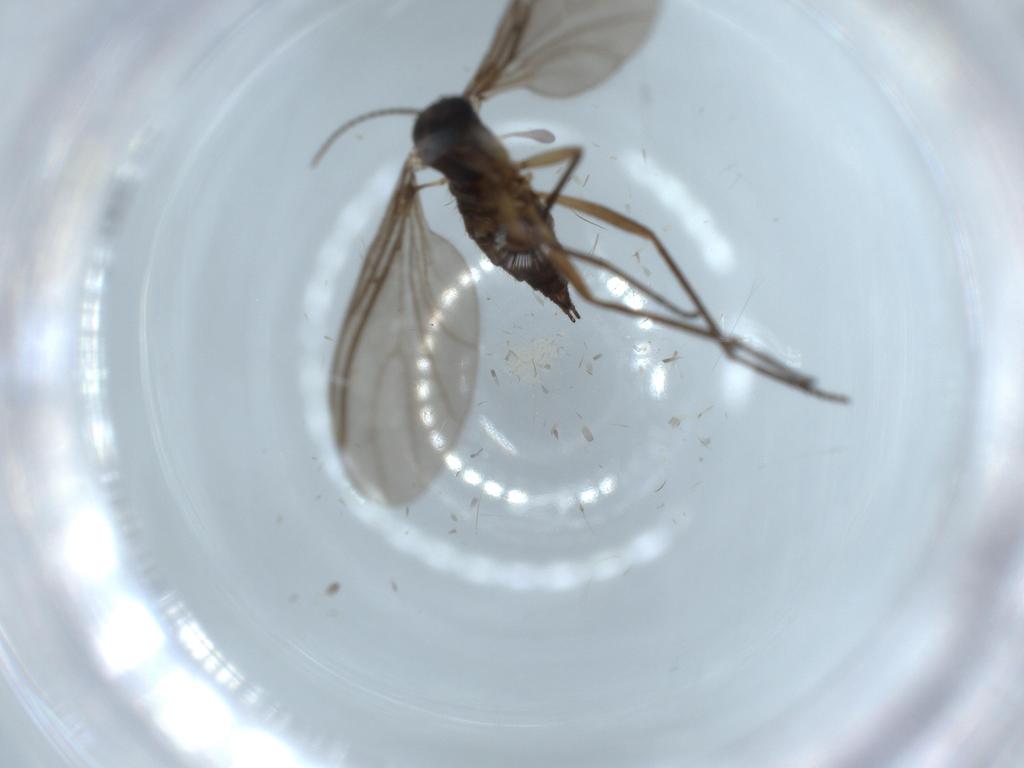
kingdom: Animalia
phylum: Arthropoda
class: Insecta
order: Diptera
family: Sciaridae
